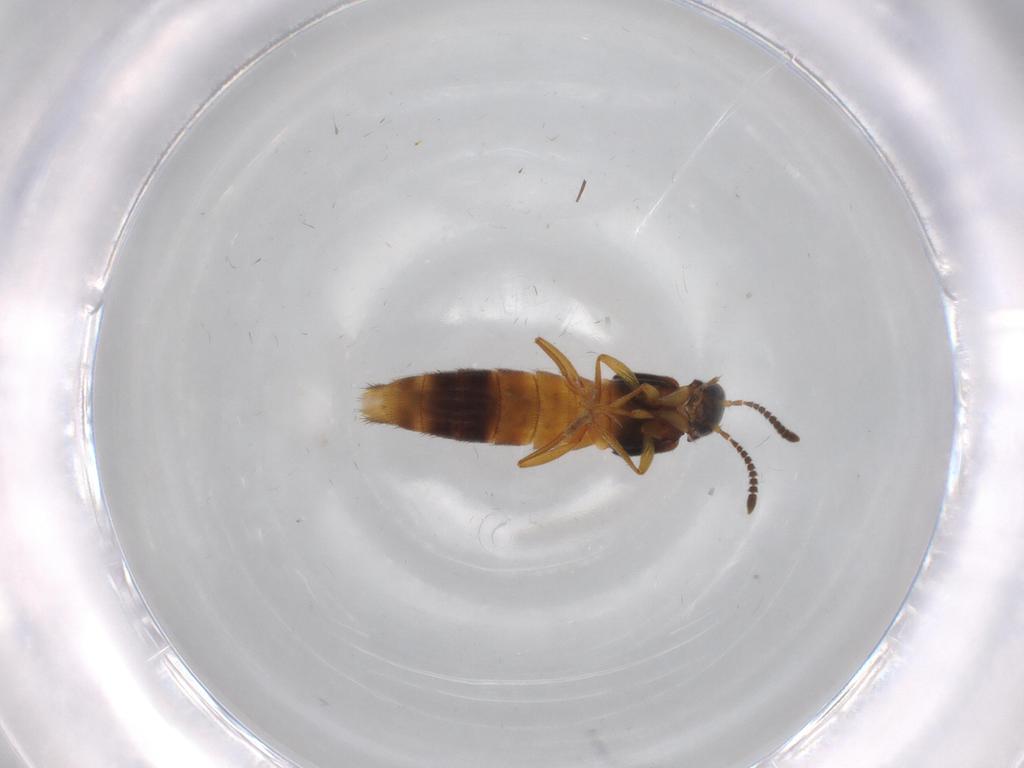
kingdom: Animalia
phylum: Arthropoda
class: Insecta
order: Coleoptera
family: Staphylinidae
